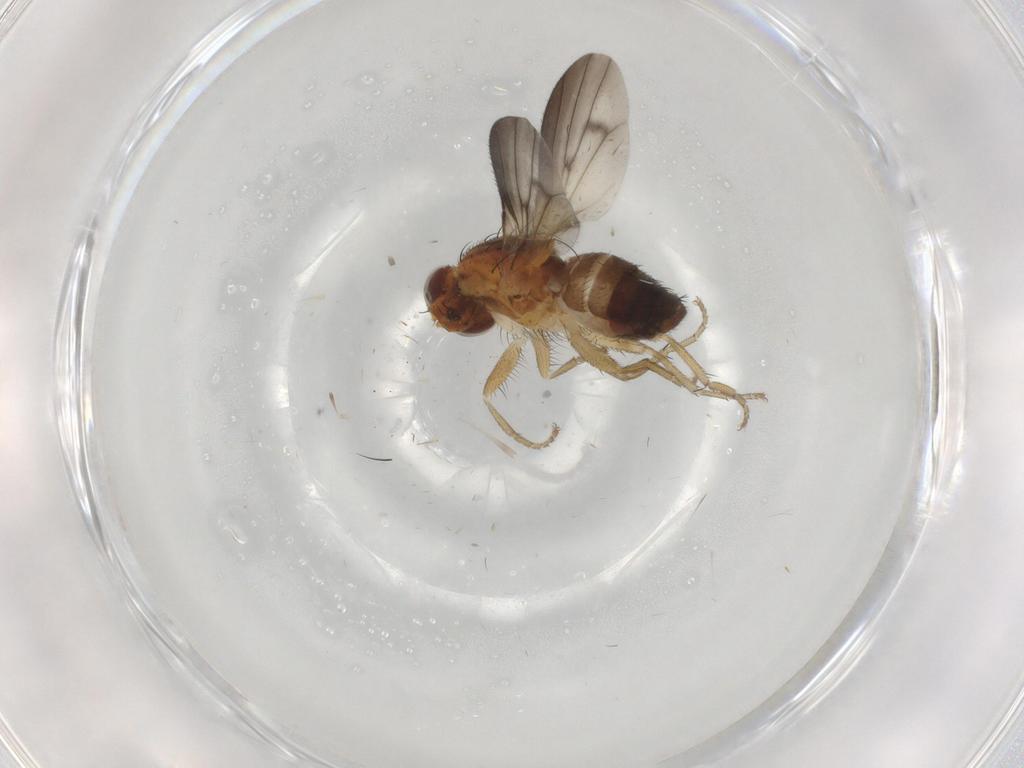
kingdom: Animalia
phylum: Arthropoda
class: Insecta
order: Diptera
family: Heleomyzidae
